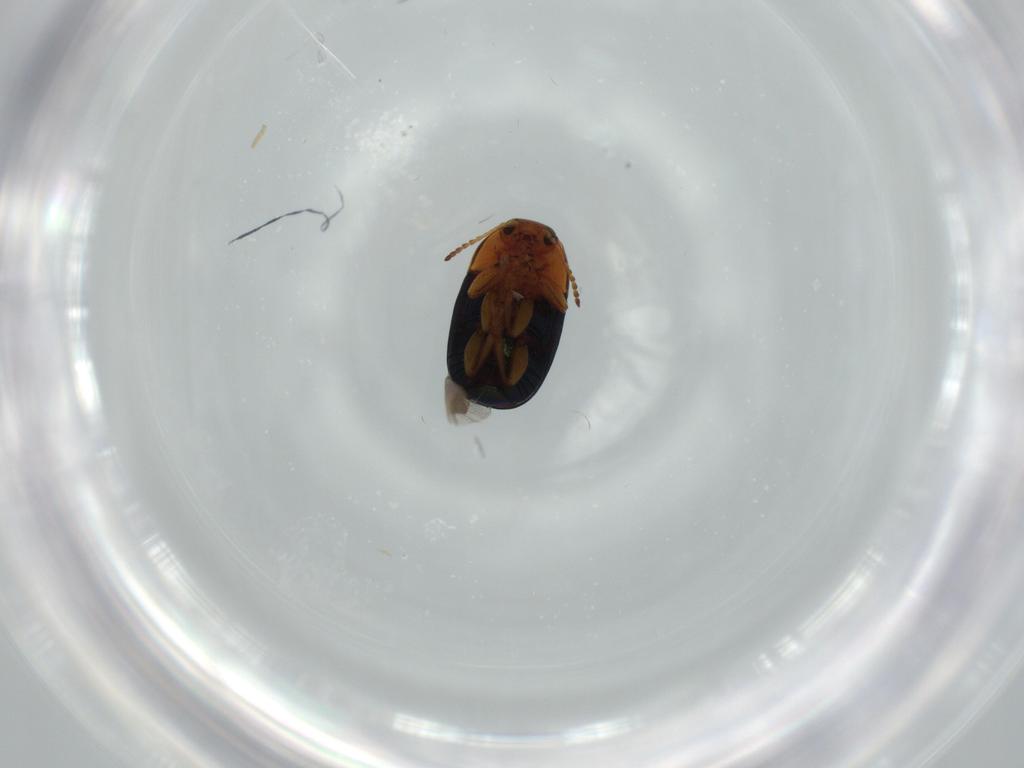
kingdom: Animalia
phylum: Arthropoda
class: Insecta
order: Coleoptera
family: Chrysomelidae
